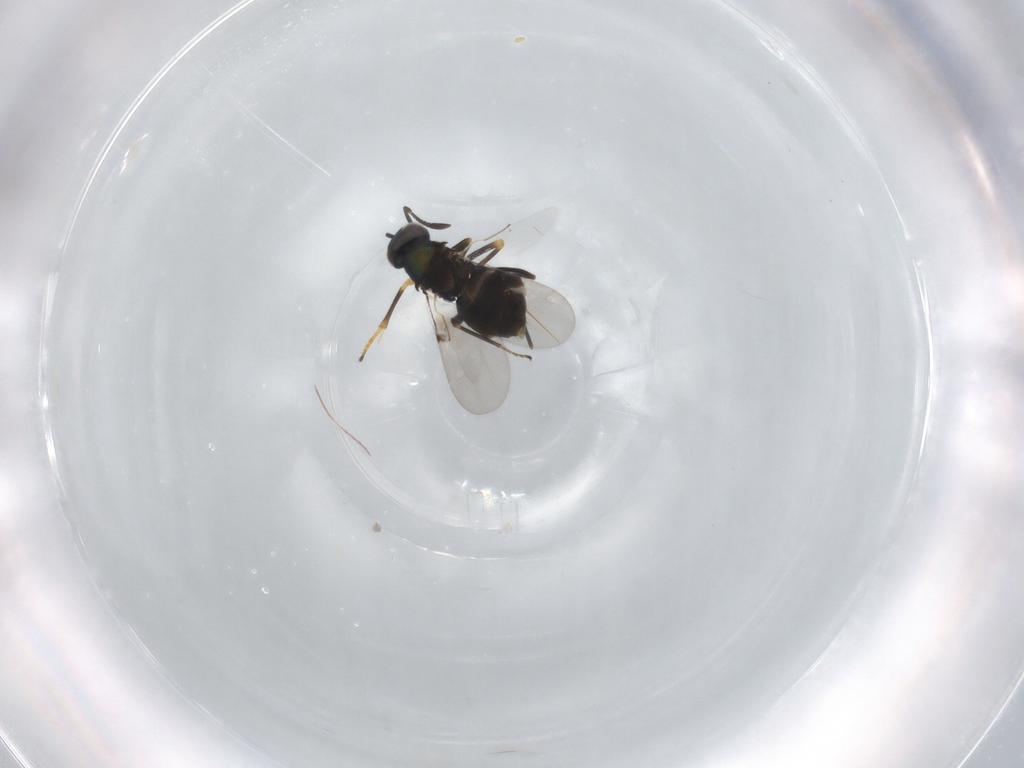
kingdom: Animalia
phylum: Arthropoda
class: Insecta
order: Hymenoptera
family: Encyrtidae
